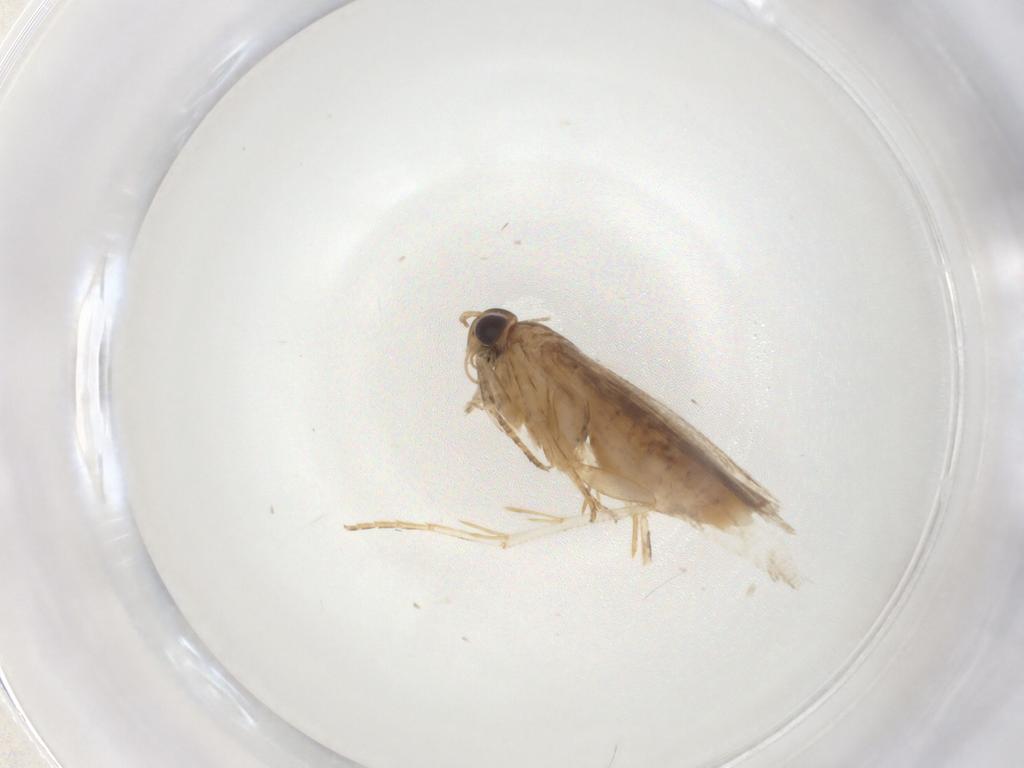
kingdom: Animalia
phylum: Arthropoda
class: Insecta
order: Lepidoptera
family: Gelechiidae
